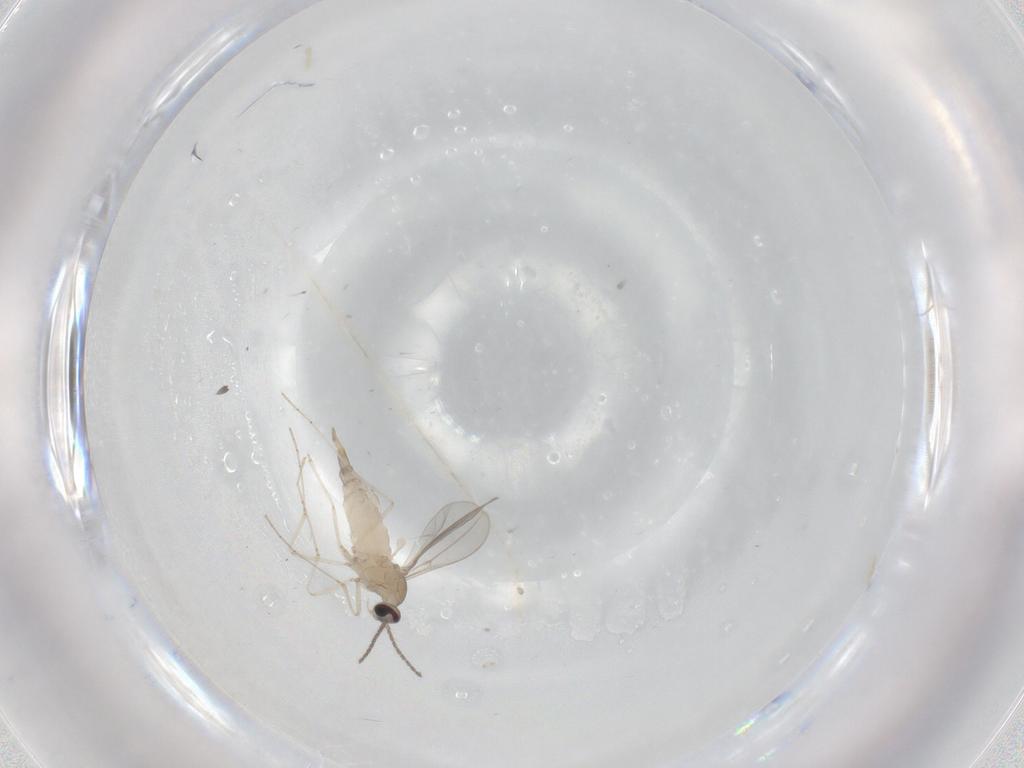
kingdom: Animalia
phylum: Arthropoda
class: Insecta
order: Diptera
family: Cecidomyiidae
